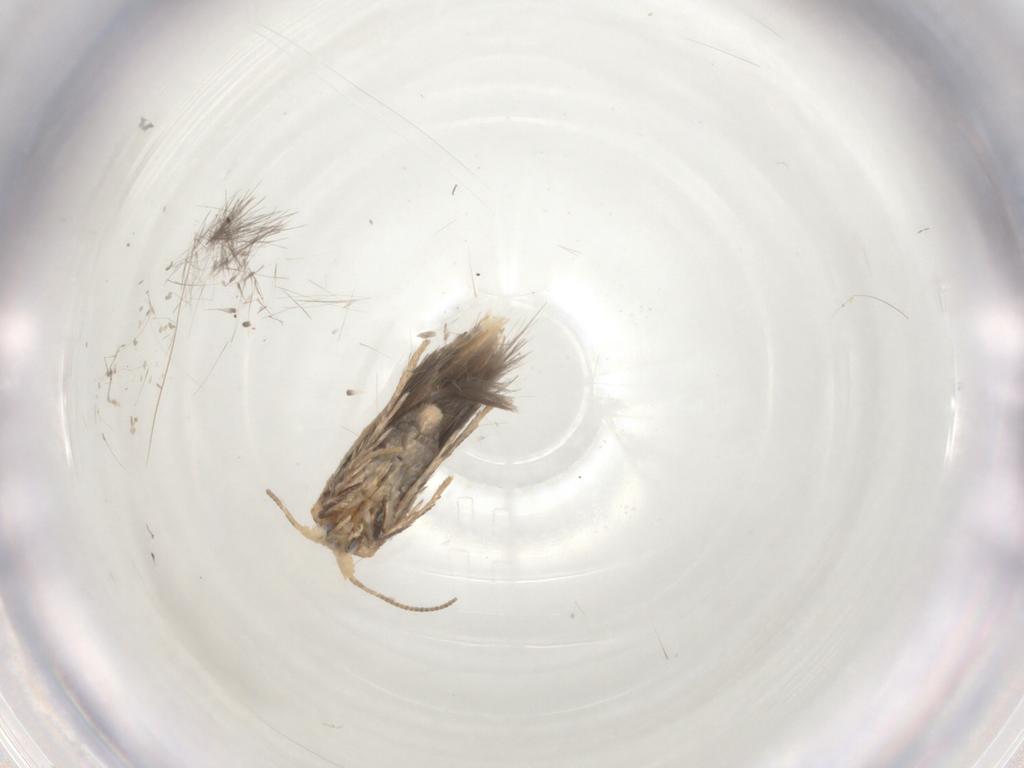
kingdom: Animalia
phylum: Arthropoda
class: Insecta
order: Lepidoptera
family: Nepticulidae
